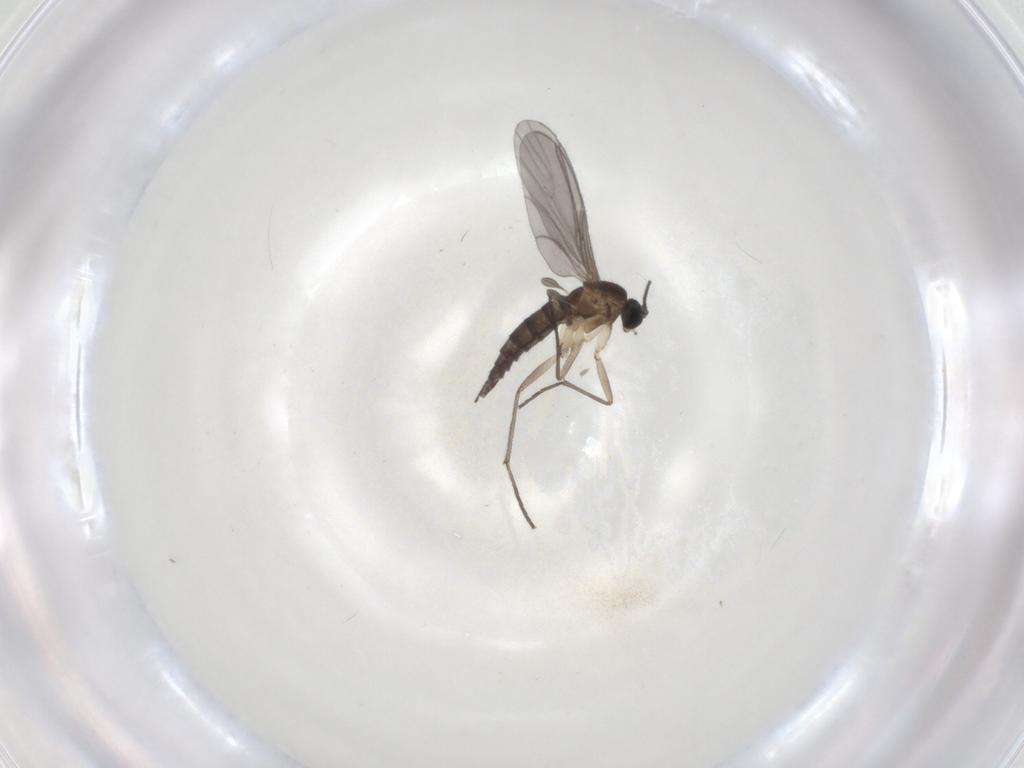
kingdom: Animalia
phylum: Arthropoda
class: Insecta
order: Diptera
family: Sciaridae
